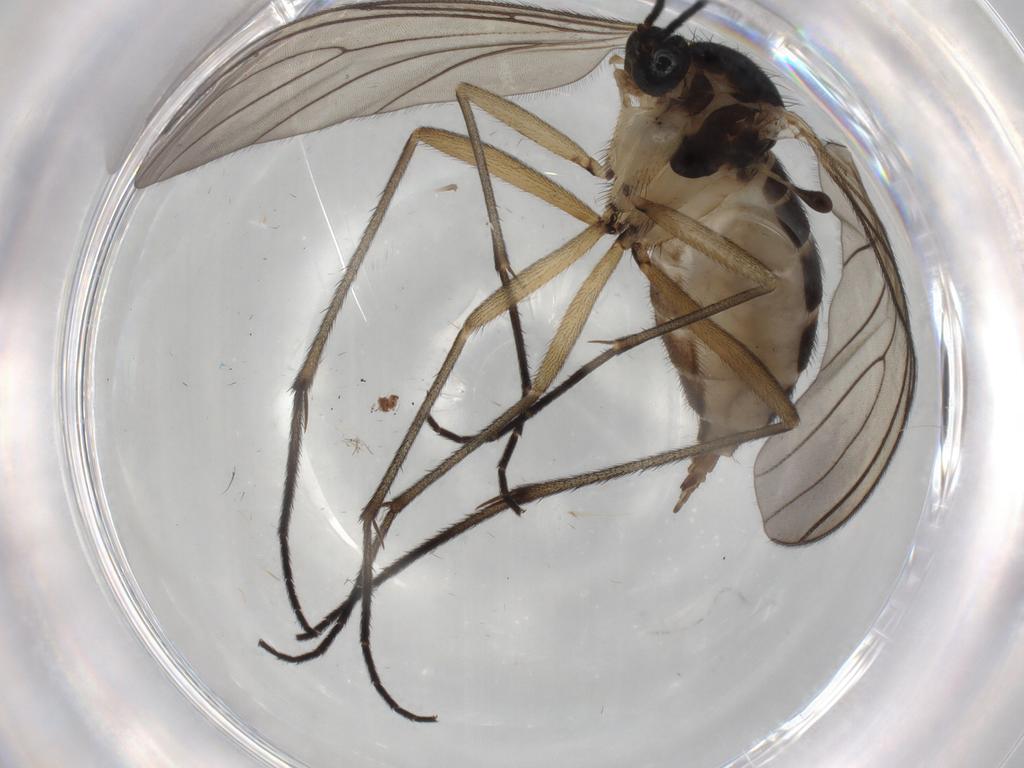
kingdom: Animalia
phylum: Arthropoda
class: Insecta
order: Diptera
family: Sciaridae
